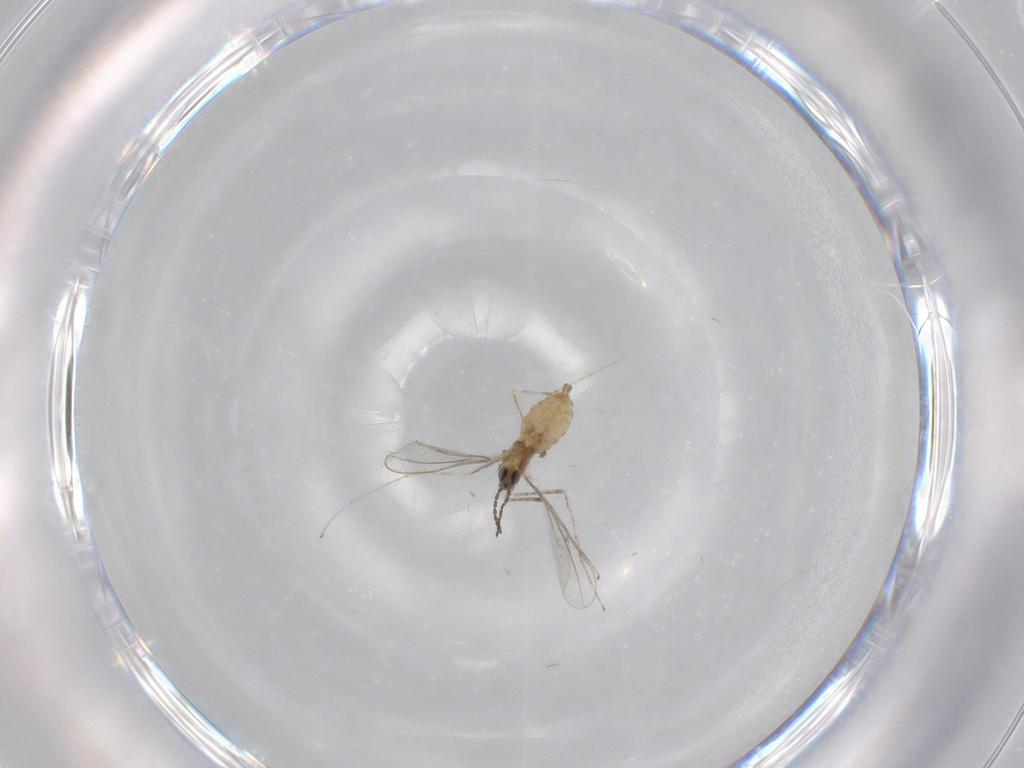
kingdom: Animalia
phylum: Arthropoda
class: Insecta
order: Diptera
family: Cecidomyiidae
